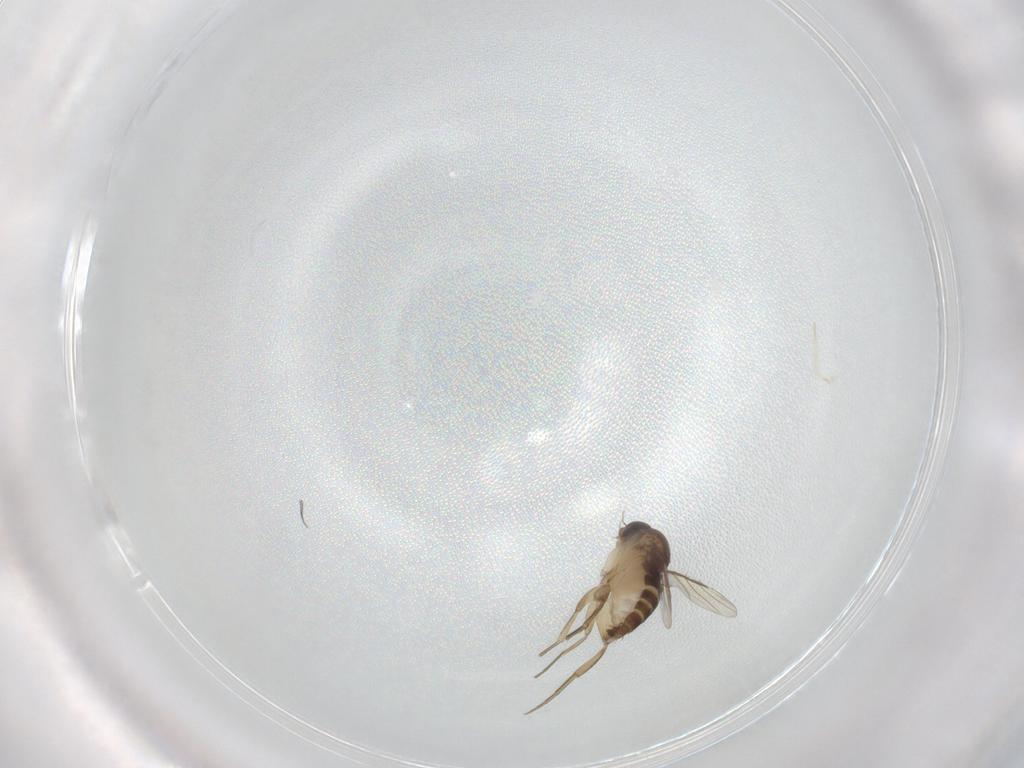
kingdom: Animalia
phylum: Arthropoda
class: Insecta
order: Diptera
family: Phoridae
